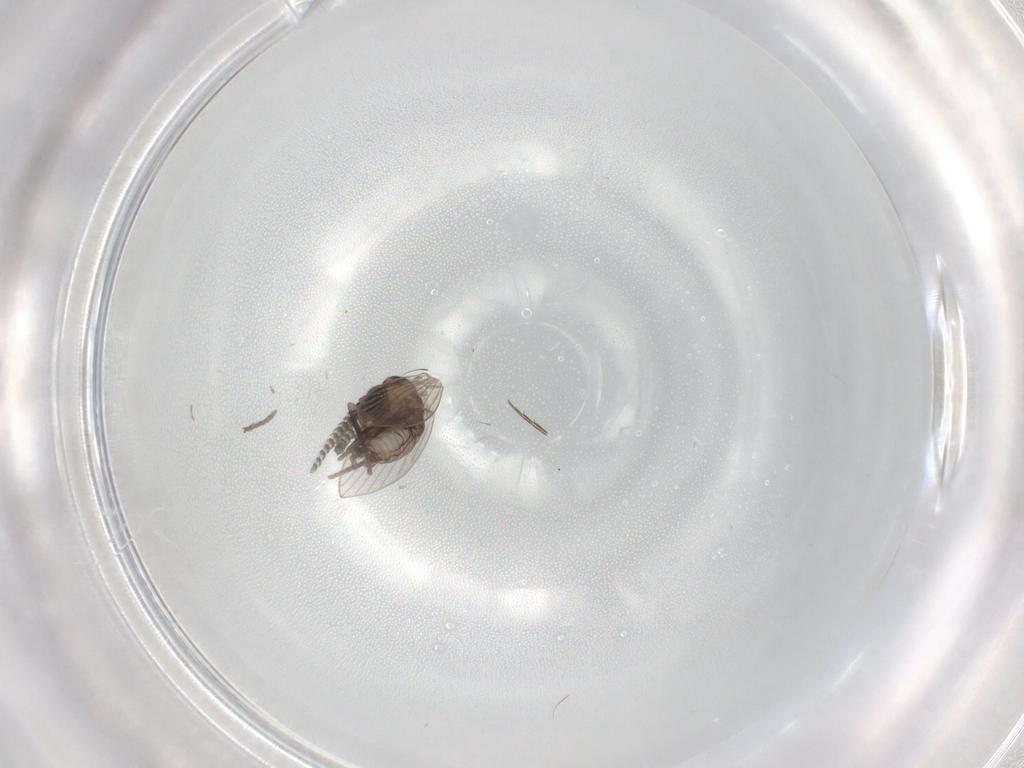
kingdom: Animalia
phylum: Arthropoda
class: Insecta
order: Diptera
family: Psychodidae
